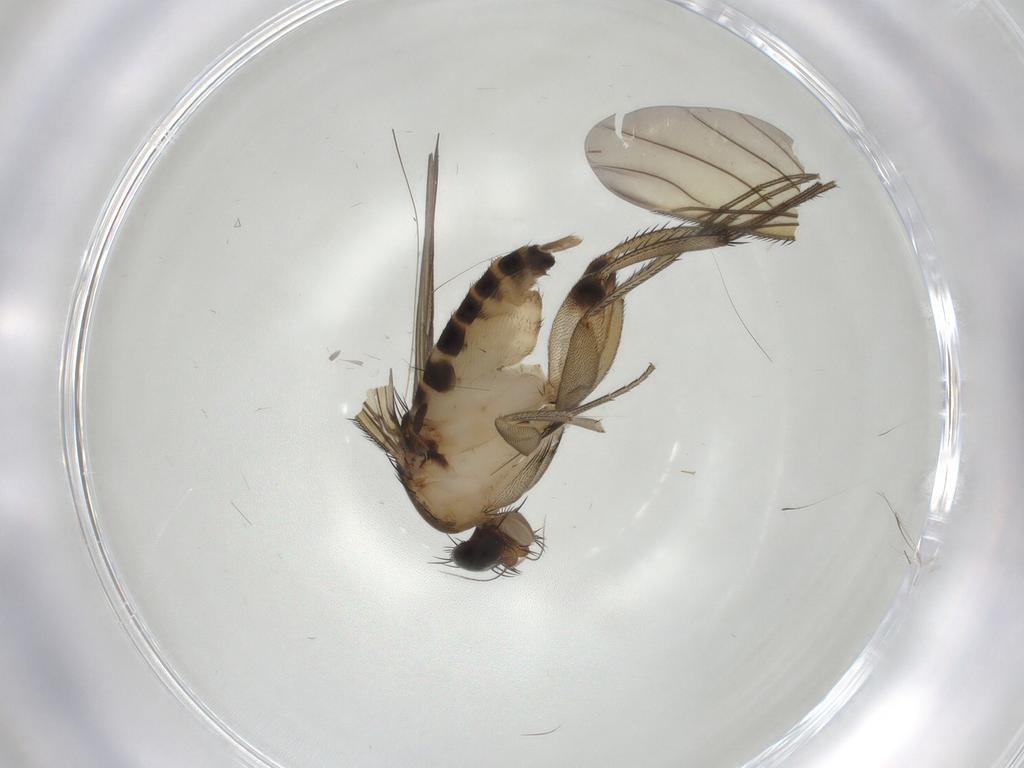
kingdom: Animalia
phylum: Arthropoda
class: Insecta
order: Diptera
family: Phoridae
